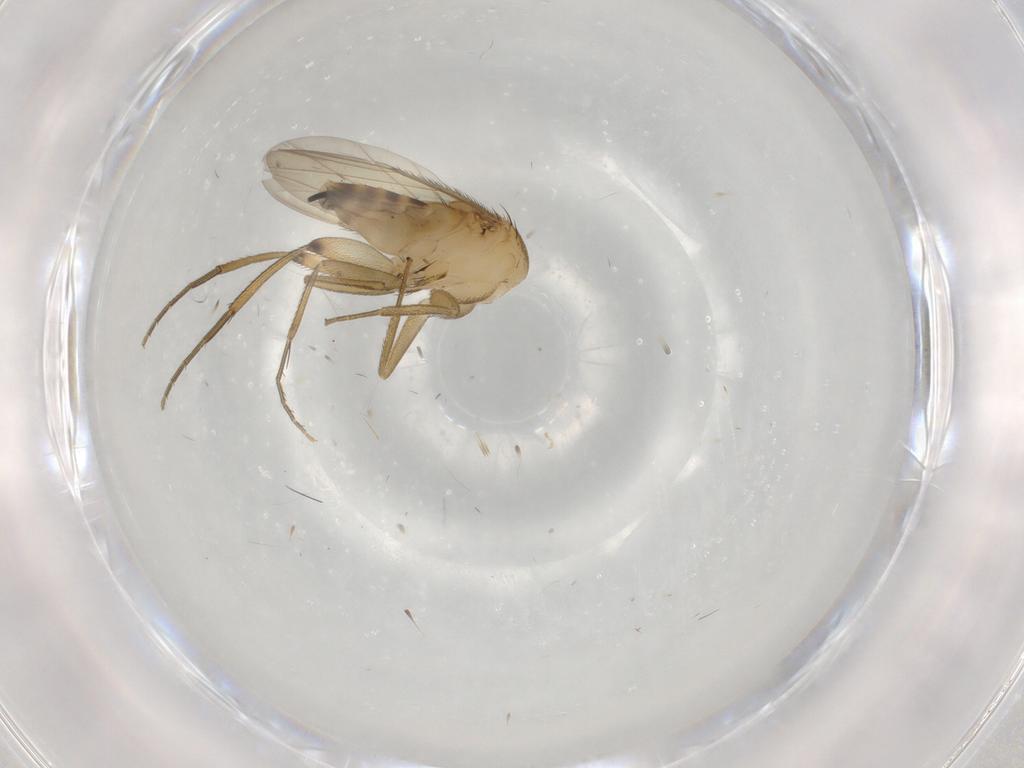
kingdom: Animalia
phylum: Arthropoda
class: Insecta
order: Diptera
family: Phoridae
